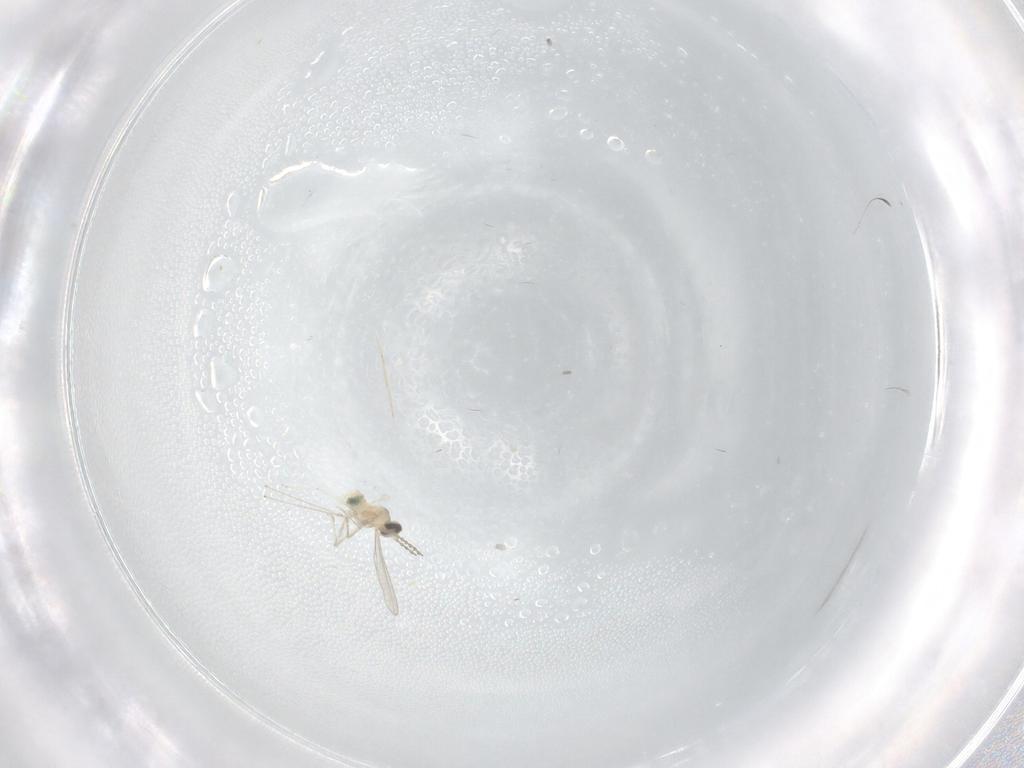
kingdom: Animalia
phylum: Arthropoda
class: Insecta
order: Diptera
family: Cecidomyiidae
